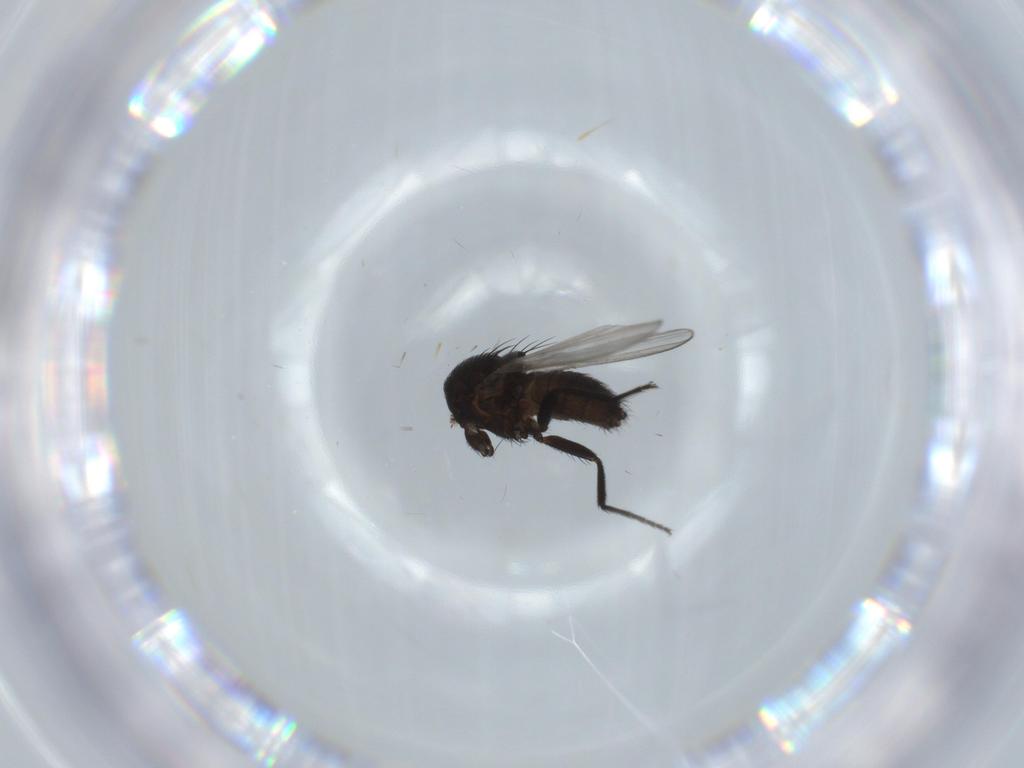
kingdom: Animalia
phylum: Arthropoda
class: Insecta
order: Diptera
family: Milichiidae
